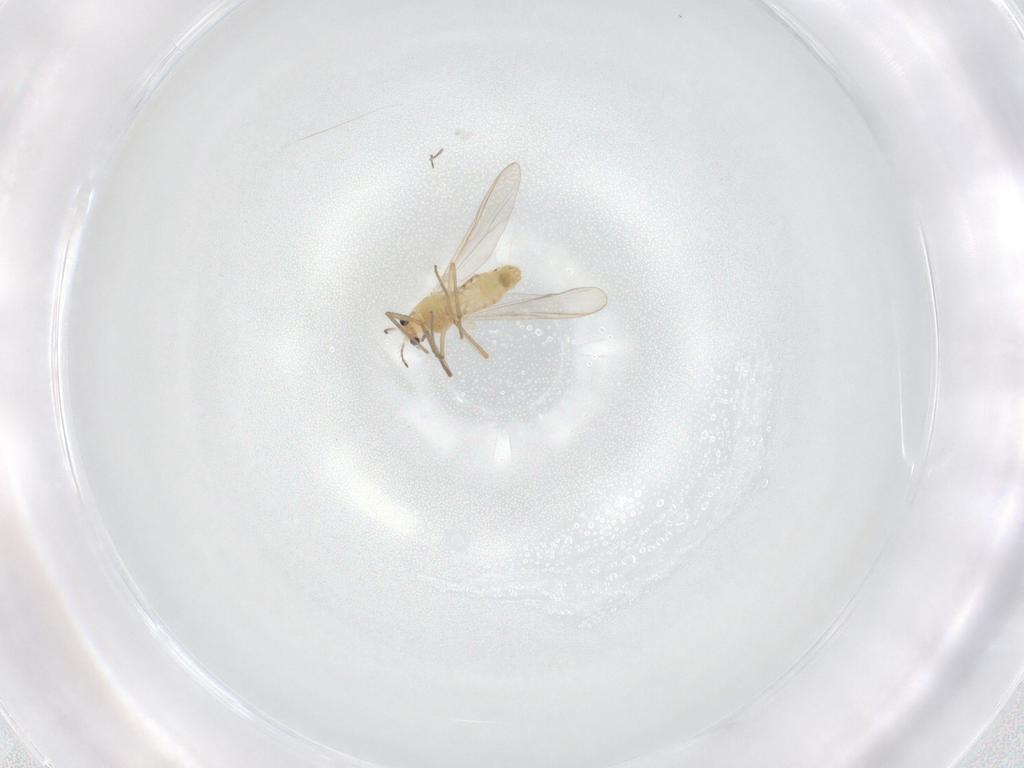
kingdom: Animalia
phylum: Arthropoda
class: Insecta
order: Diptera
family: Chironomidae
